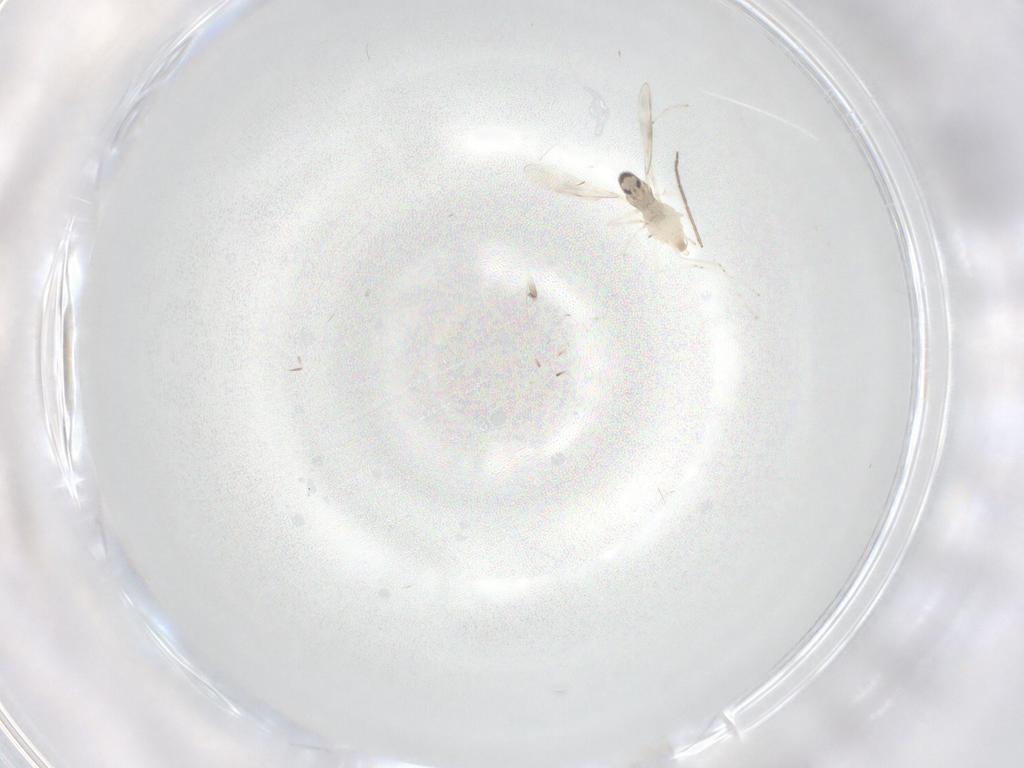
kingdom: Animalia
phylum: Arthropoda
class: Insecta
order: Diptera
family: Cecidomyiidae
